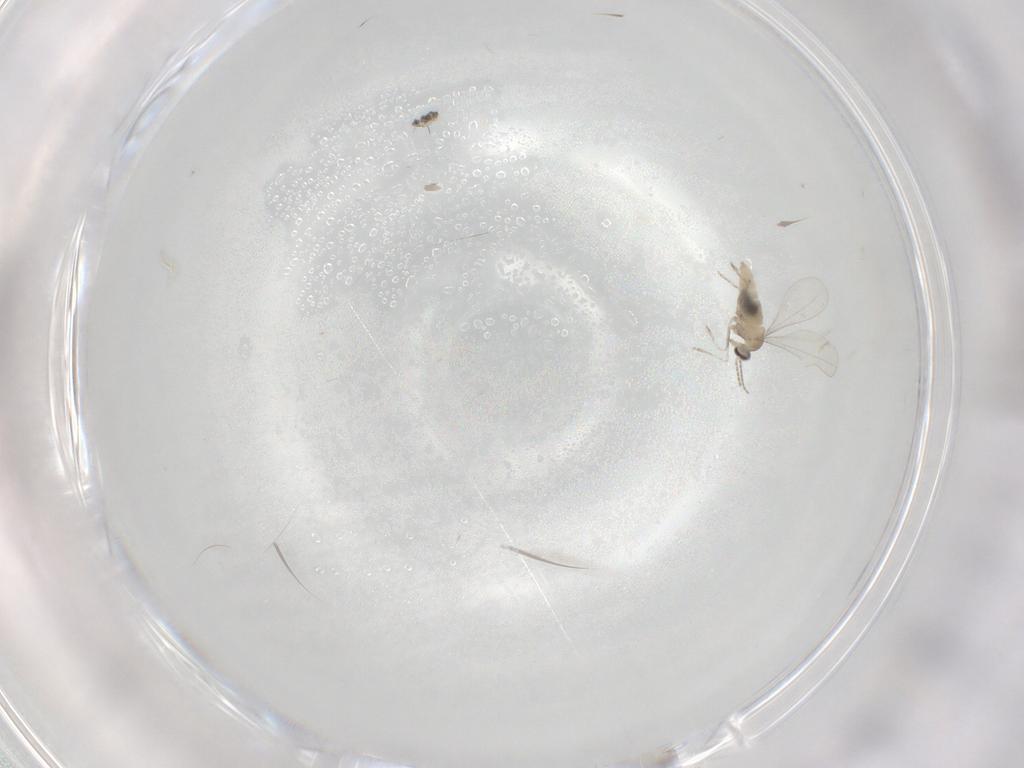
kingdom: Animalia
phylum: Arthropoda
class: Insecta
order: Diptera
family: Cecidomyiidae
